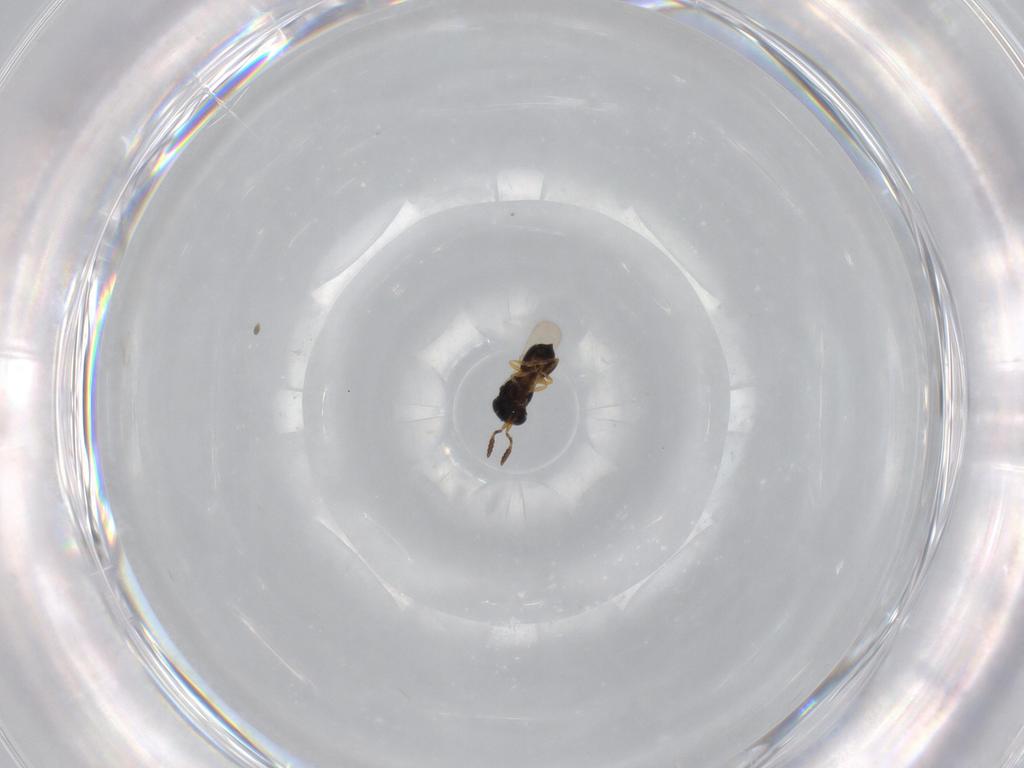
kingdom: Animalia
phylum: Arthropoda
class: Insecta
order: Hymenoptera
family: Scelionidae
